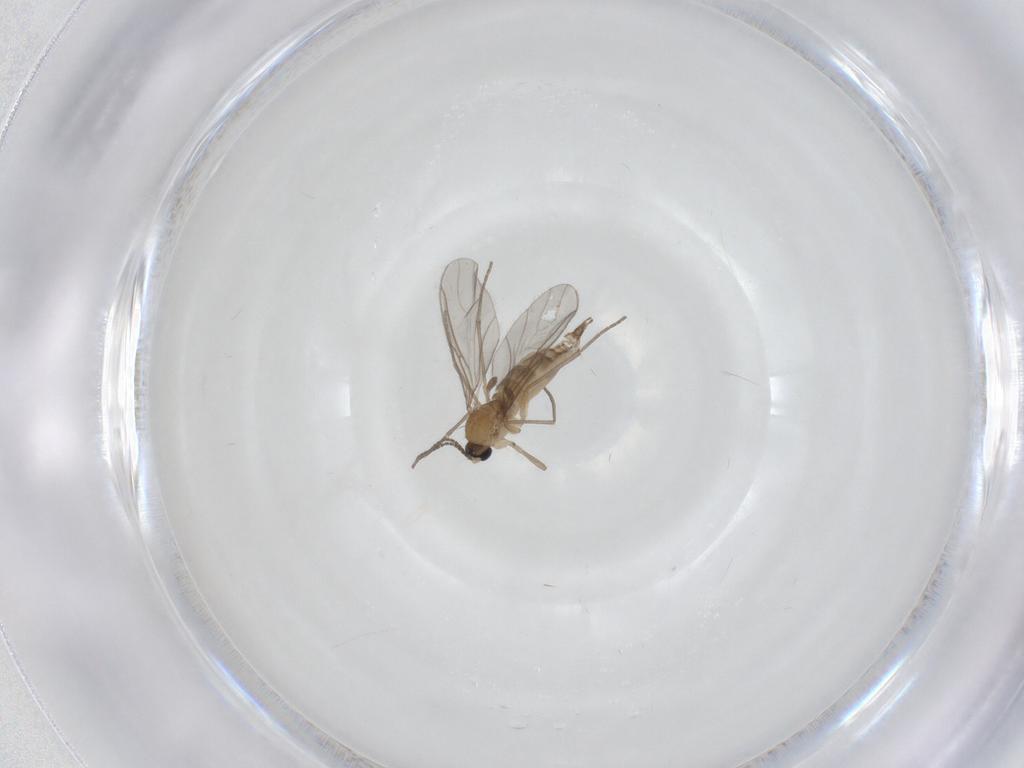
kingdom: Animalia
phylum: Arthropoda
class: Insecta
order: Diptera
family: Sciaridae
